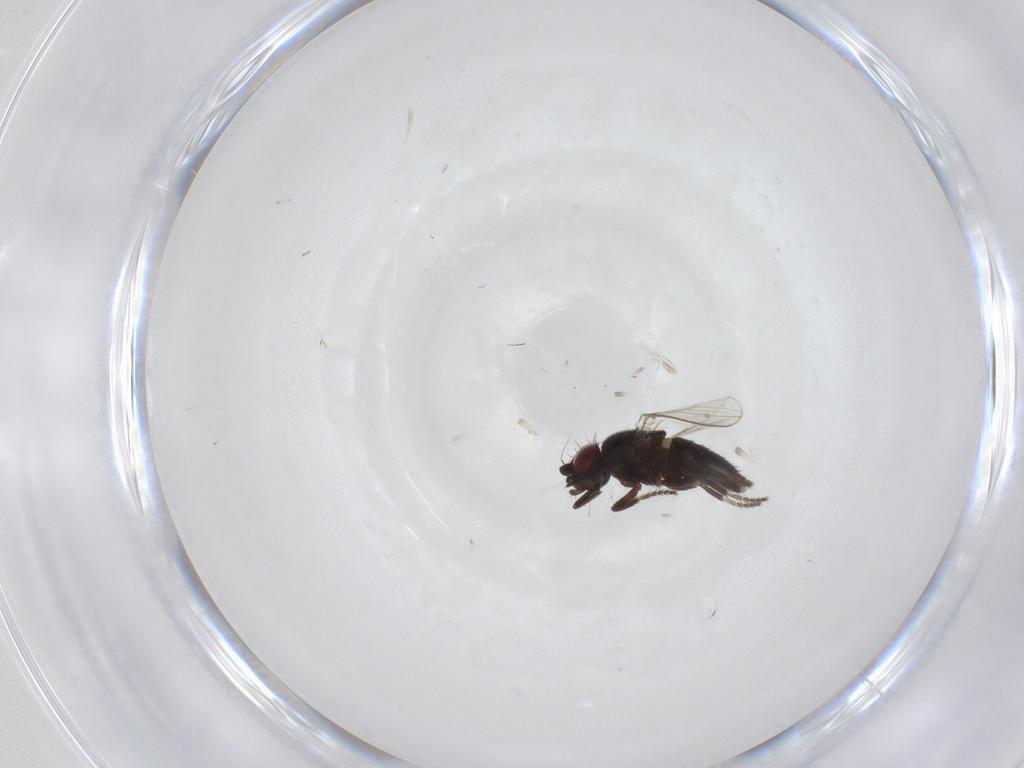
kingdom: Animalia
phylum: Arthropoda
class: Insecta
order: Diptera
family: Milichiidae
